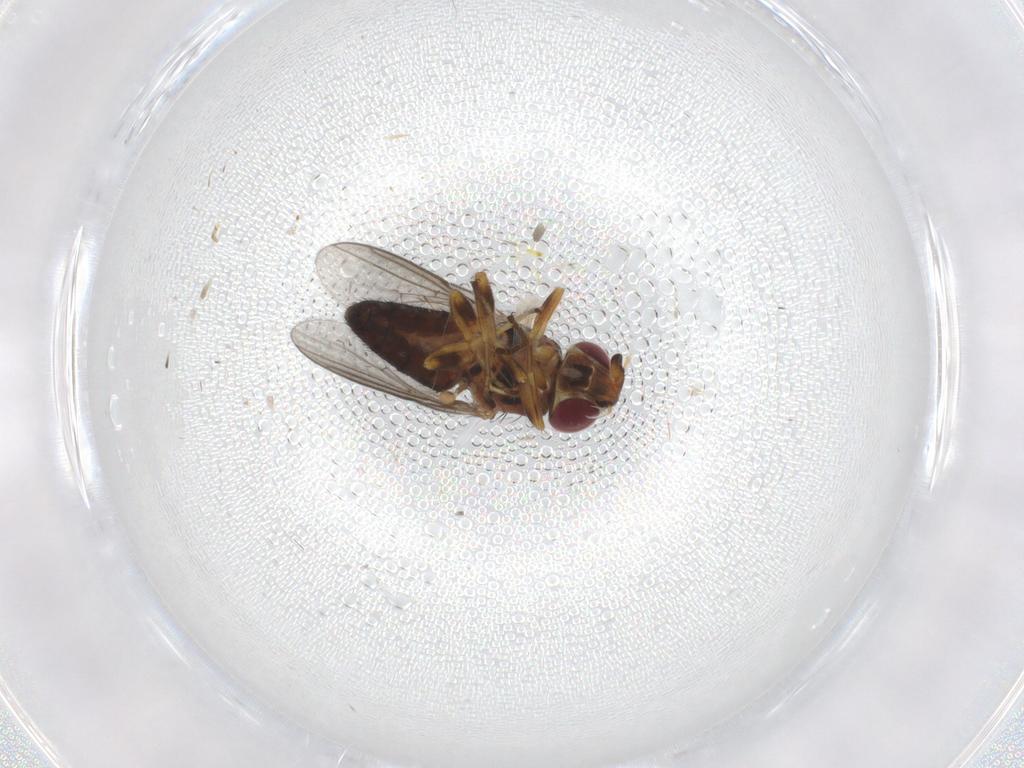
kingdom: Animalia
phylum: Arthropoda
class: Insecta
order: Diptera
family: Chloropidae
